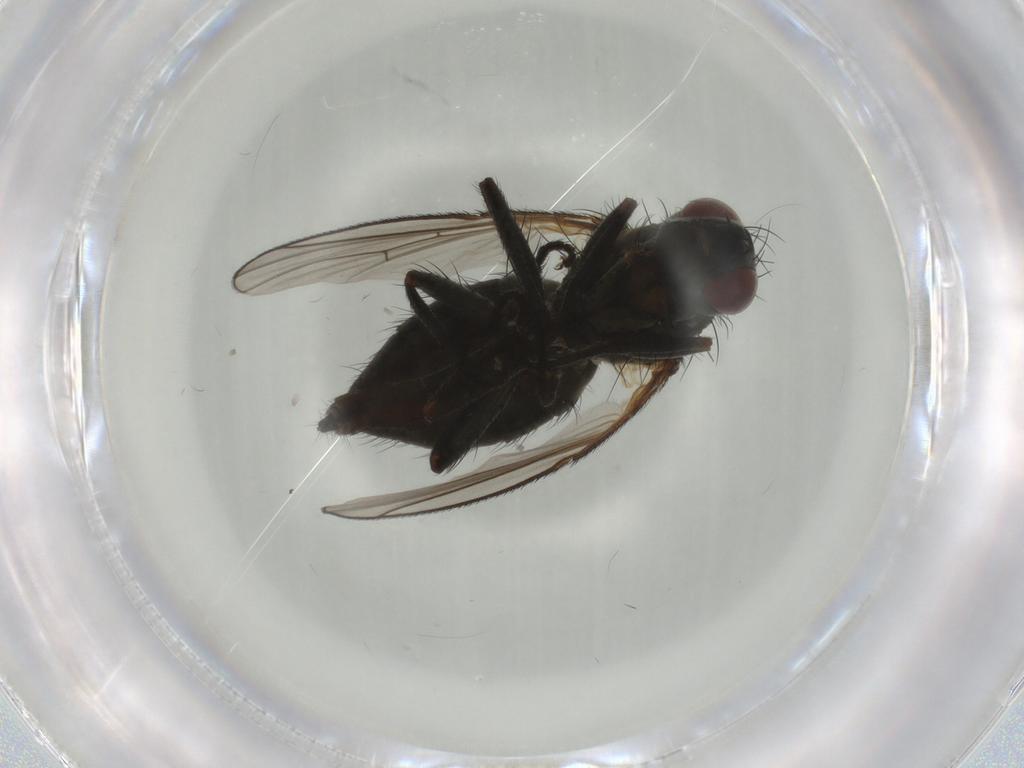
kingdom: Animalia
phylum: Arthropoda
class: Insecta
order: Diptera
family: Muscidae
